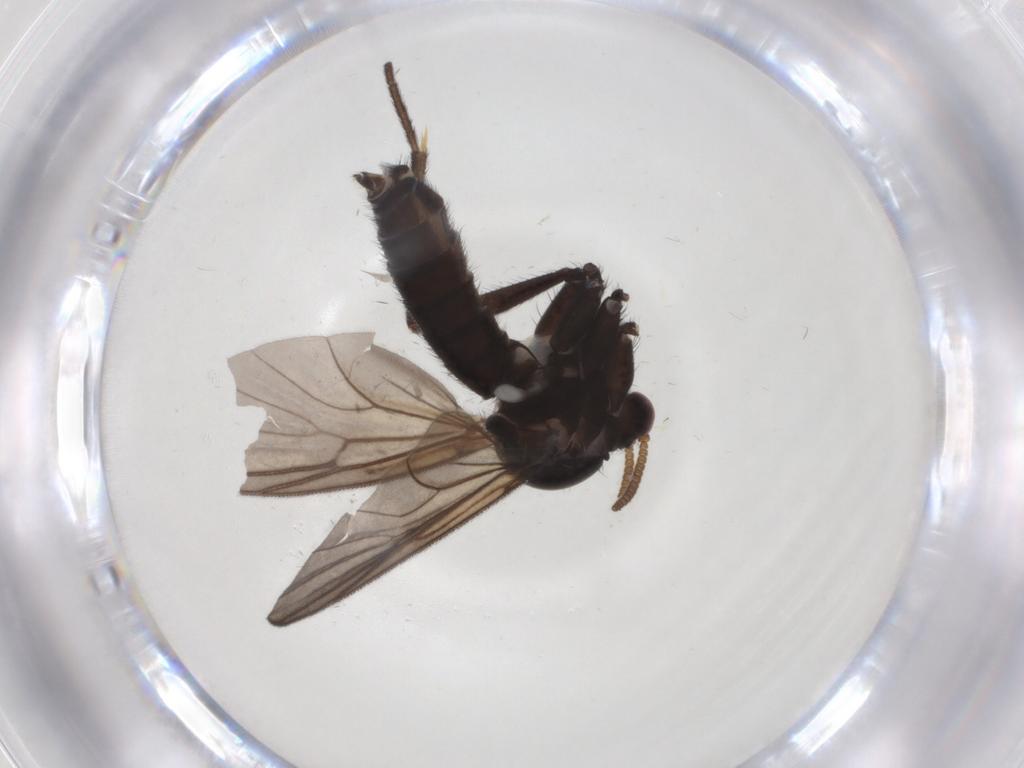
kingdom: Animalia
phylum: Arthropoda
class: Insecta
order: Diptera
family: Mycetophilidae
